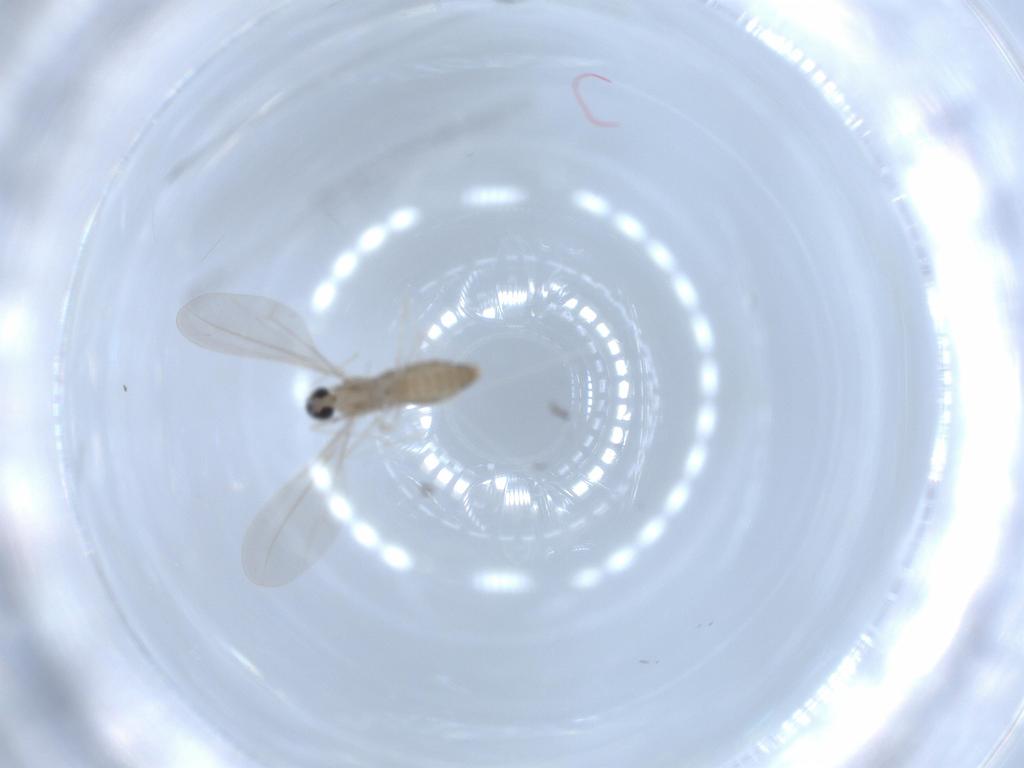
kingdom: Animalia
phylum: Arthropoda
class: Insecta
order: Diptera
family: Cecidomyiidae
